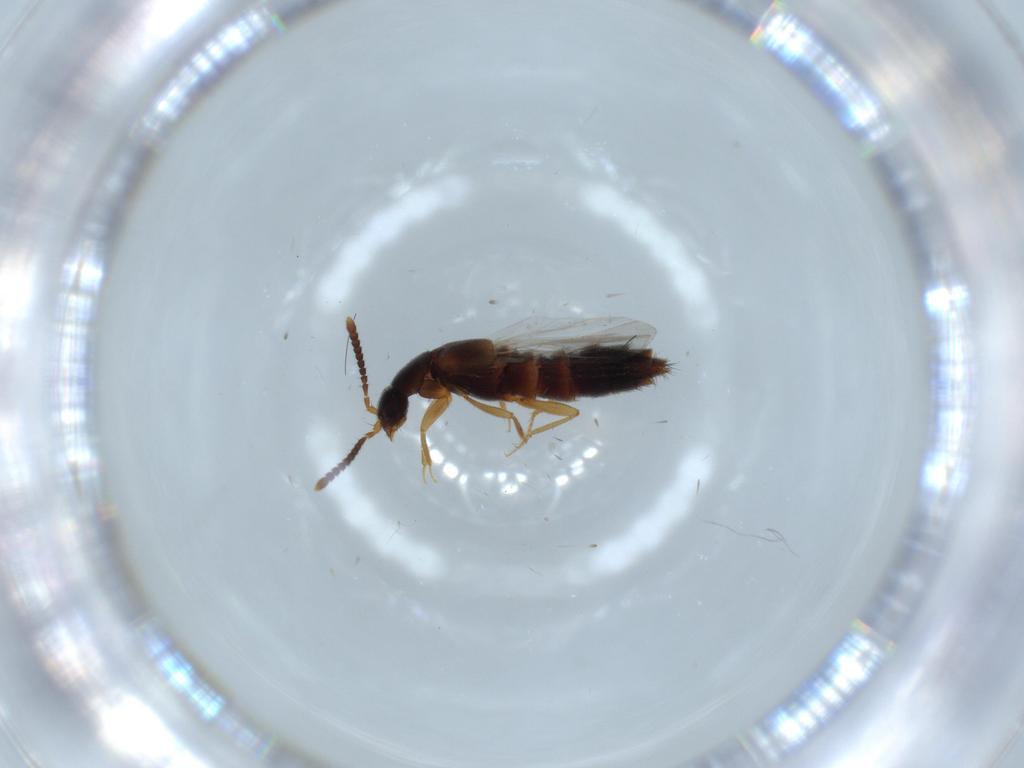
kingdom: Animalia
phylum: Arthropoda
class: Insecta
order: Coleoptera
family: Staphylinidae
